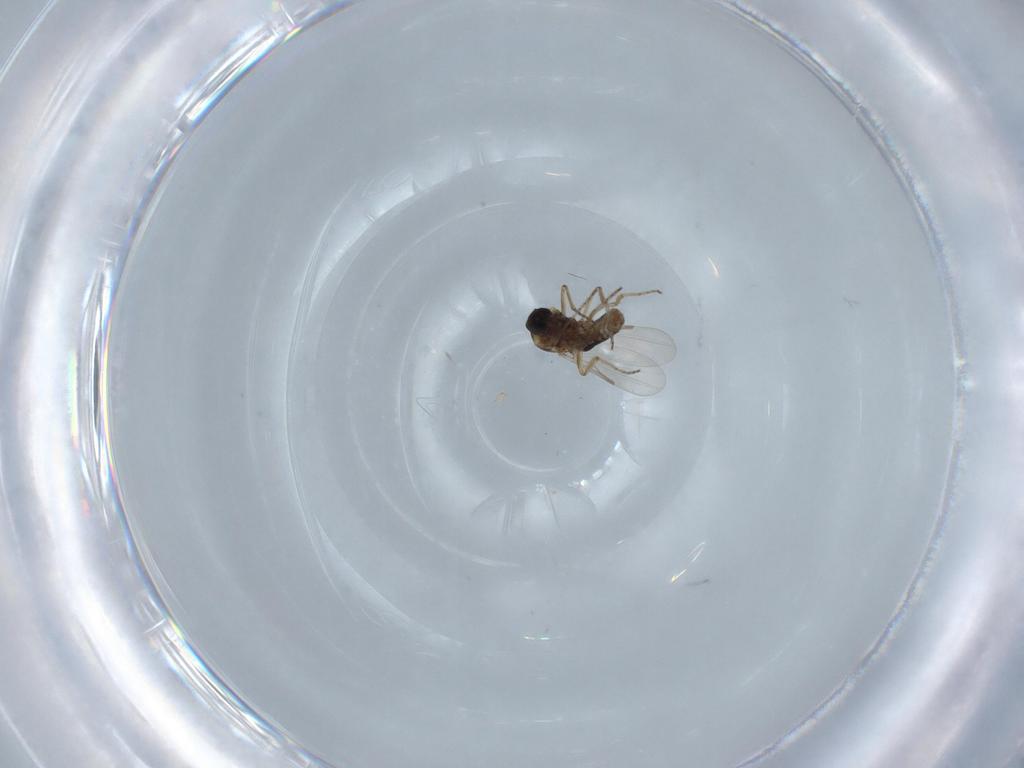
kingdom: Animalia
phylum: Arthropoda
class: Insecta
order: Diptera
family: Ceratopogonidae
